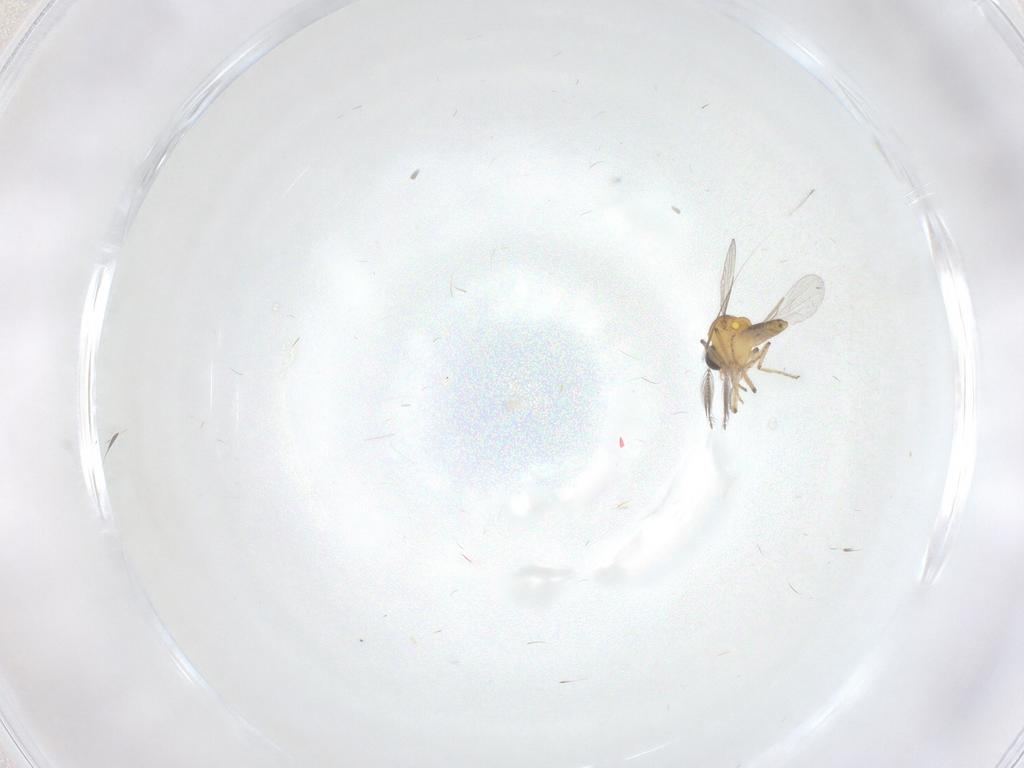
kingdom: Animalia
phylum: Arthropoda
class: Insecta
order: Diptera
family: Ceratopogonidae
